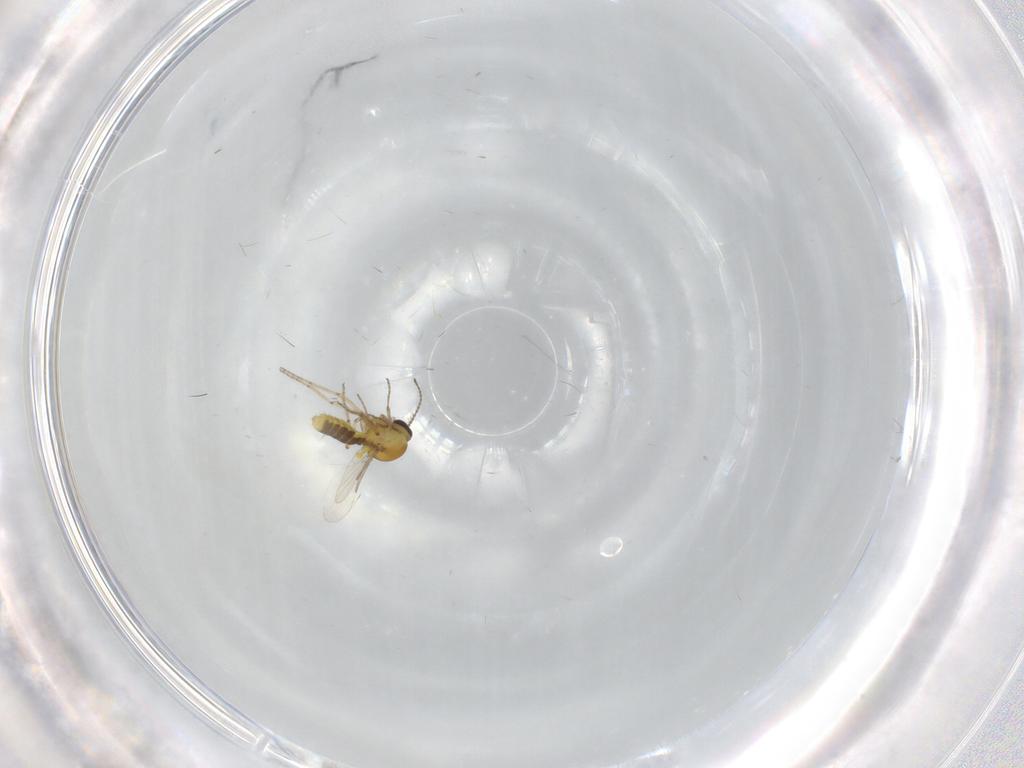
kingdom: Animalia
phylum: Arthropoda
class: Insecta
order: Diptera
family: Ceratopogonidae
